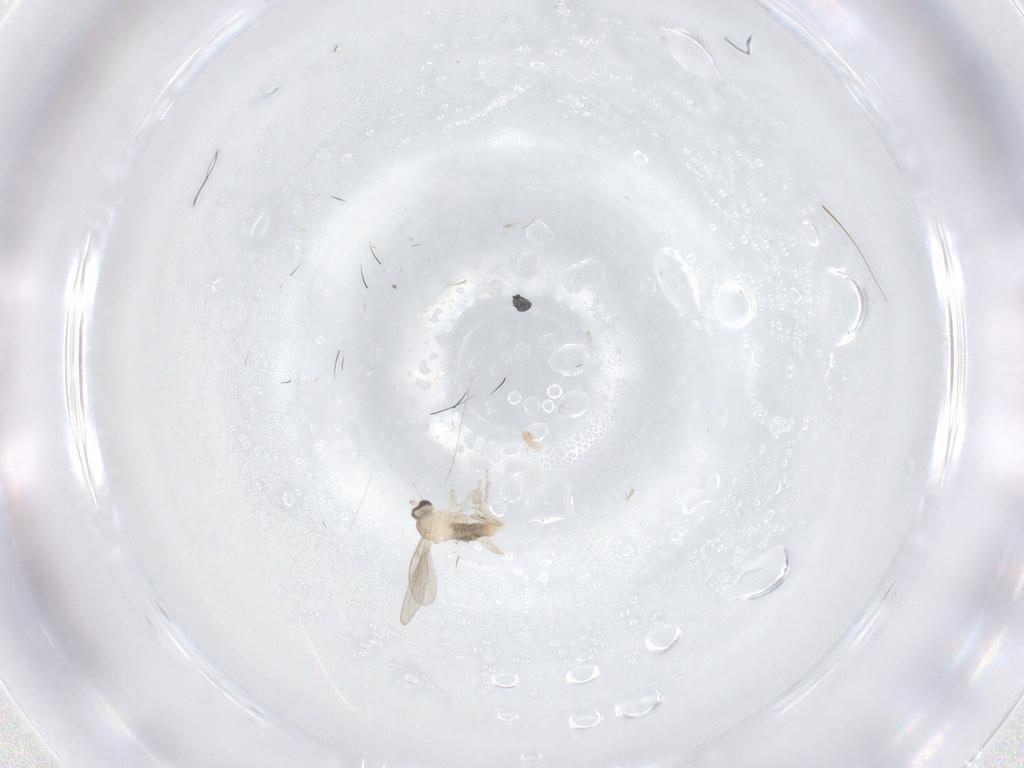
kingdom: Animalia
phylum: Arthropoda
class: Insecta
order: Diptera
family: Cecidomyiidae
